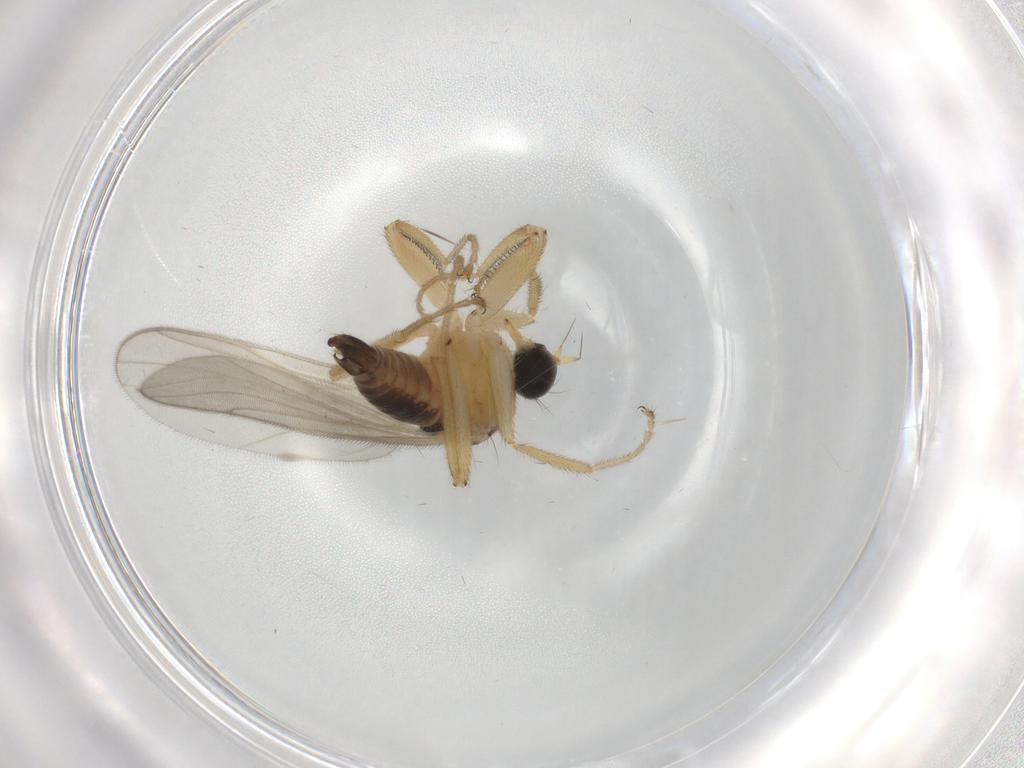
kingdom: Animalia
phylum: Arthropoda
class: Insecta
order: Diptera
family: Hybotidae
